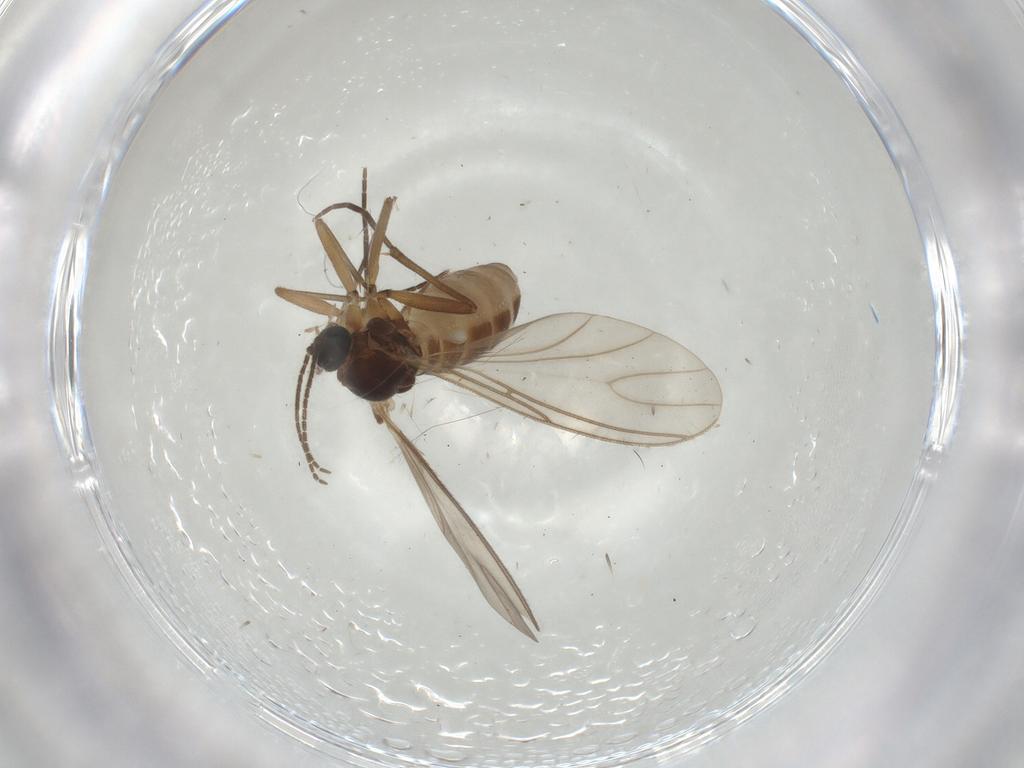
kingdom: Animalia
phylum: Arthropoda
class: Insecta
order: Diptera
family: Sciaridae
